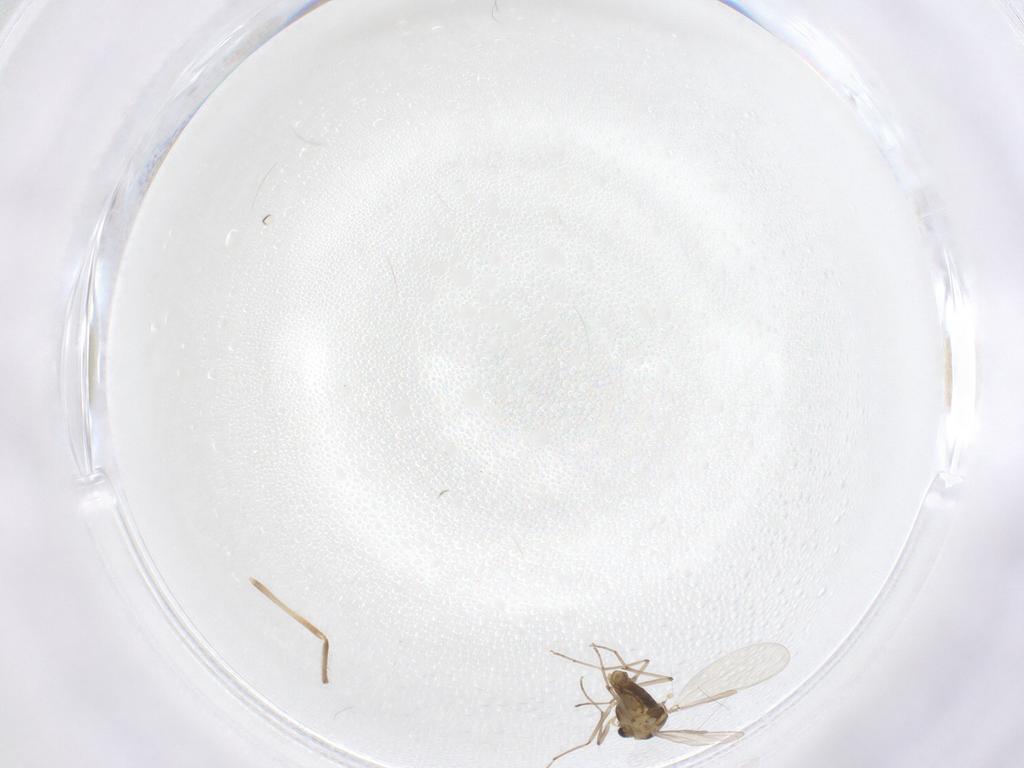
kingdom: Animalia
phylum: Arthropoda
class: Insecta
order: Diptera
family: Chironomidae
